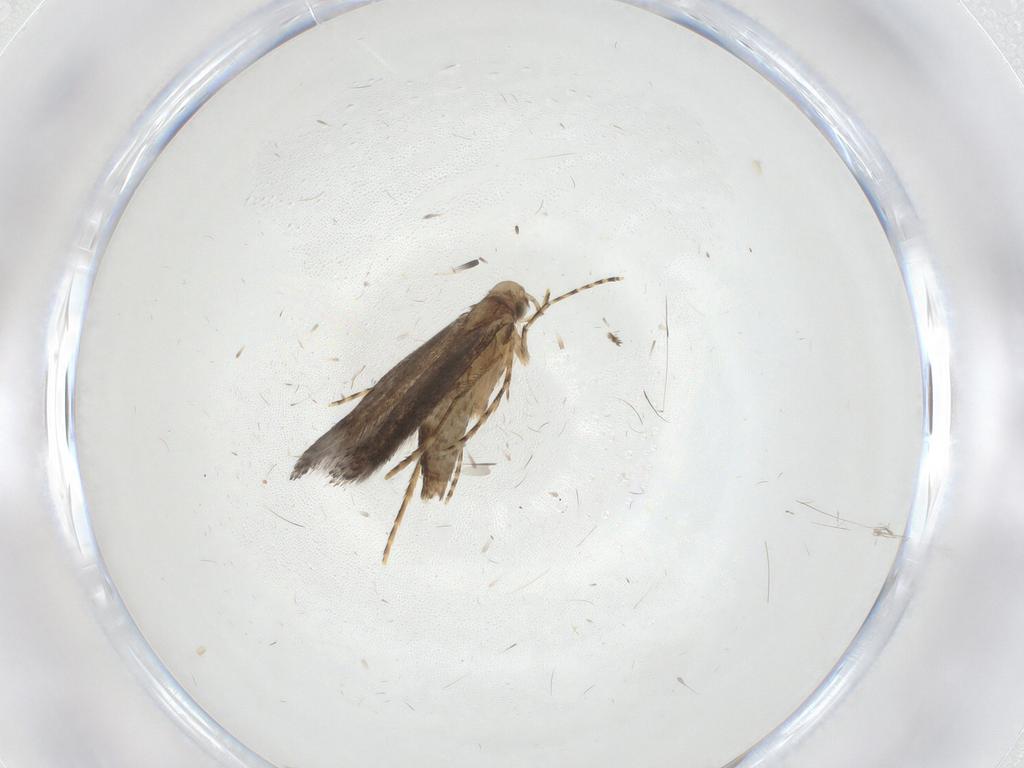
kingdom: Animalia
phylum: Arthropoda
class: Insecta
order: Lepidoptera
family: Gracillariidae
